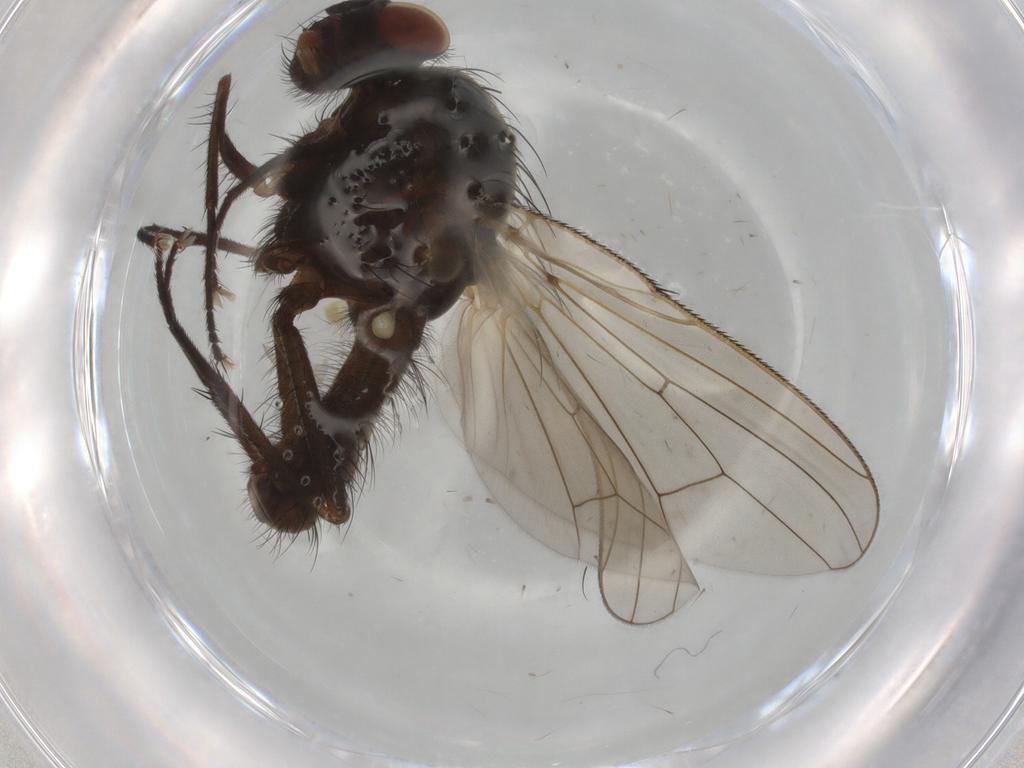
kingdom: Animalia
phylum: Arthropoda
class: Insecta
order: Diptera
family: Anthomyiidae
